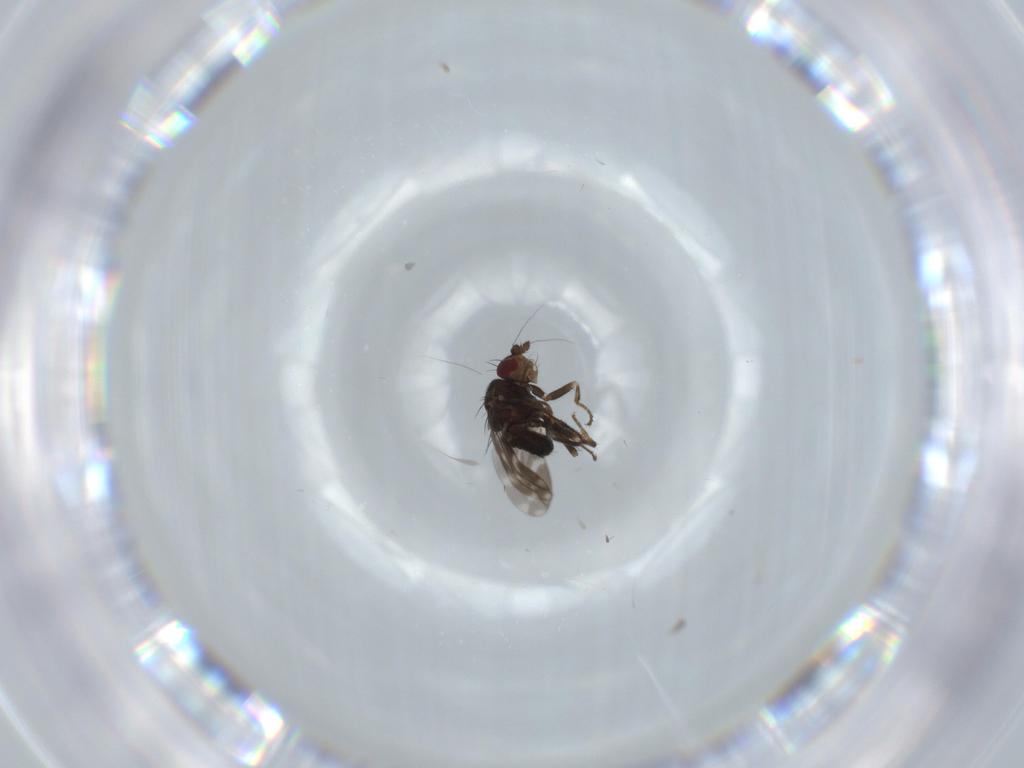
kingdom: Animalia
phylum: Arthropoda
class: Insecta
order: Diptera
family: Sphaeroceridae
